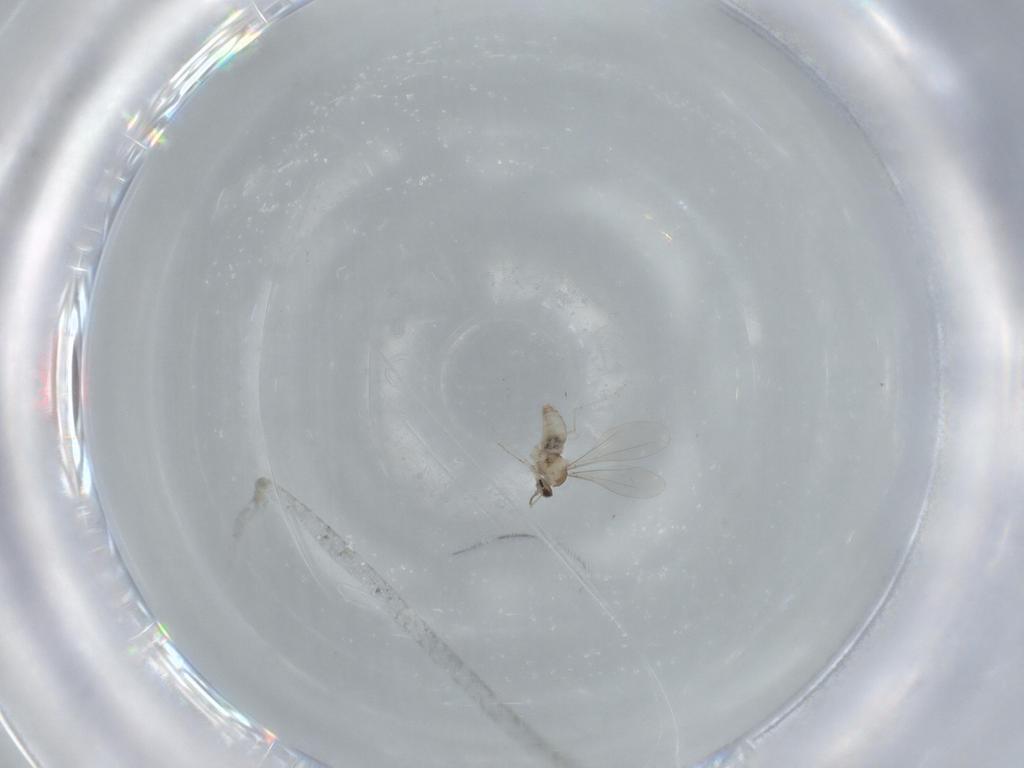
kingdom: Animalia
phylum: Arthropoda
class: Insecta
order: Diptera
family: Cecidomyiidae
